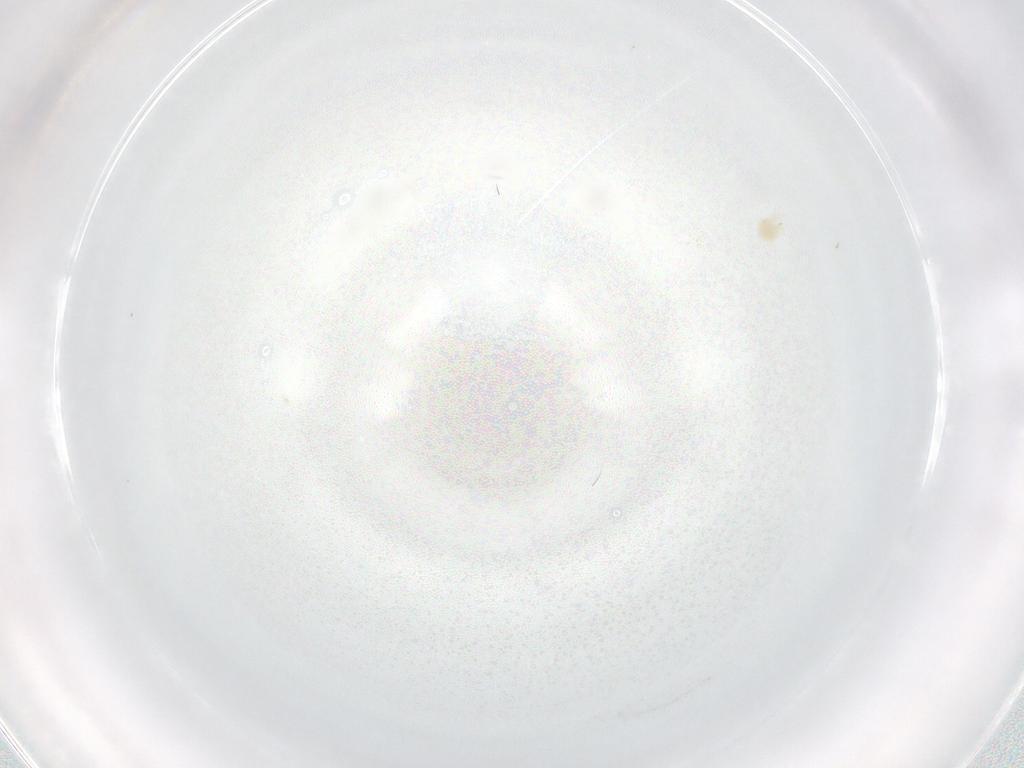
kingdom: Animalia
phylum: Arthropoda
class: Arachnida
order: Trombidiformes
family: Tetranychidae
